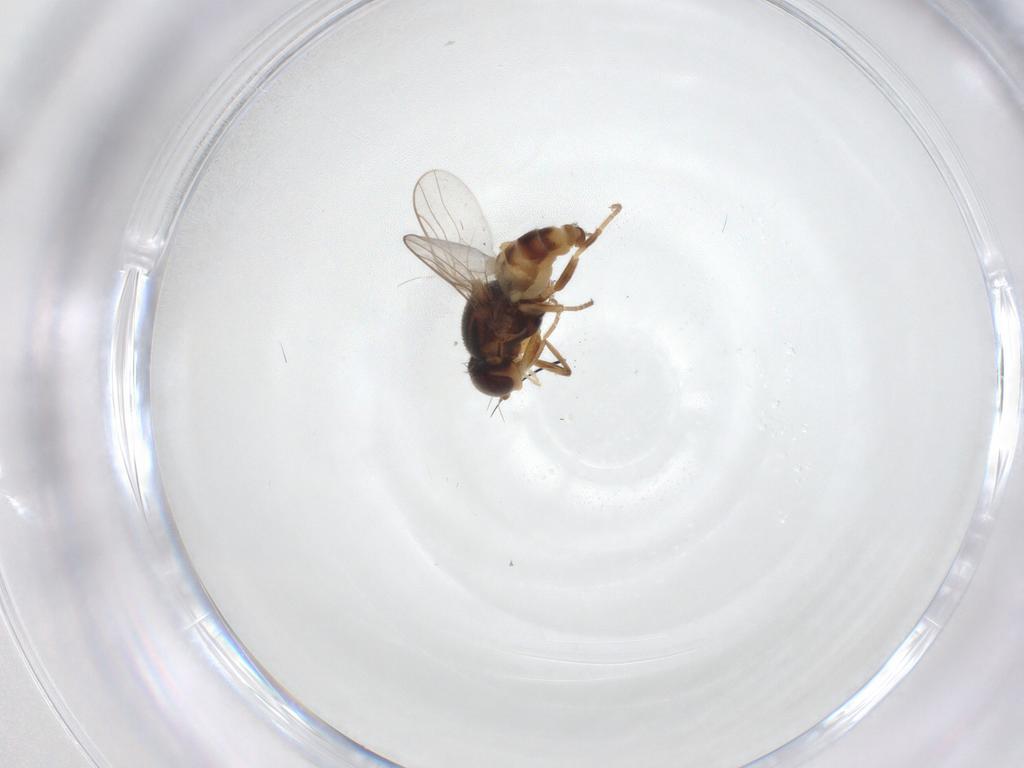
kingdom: Animalia
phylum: Arthropoda
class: Insecta
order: Diptera
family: Chloropidae
